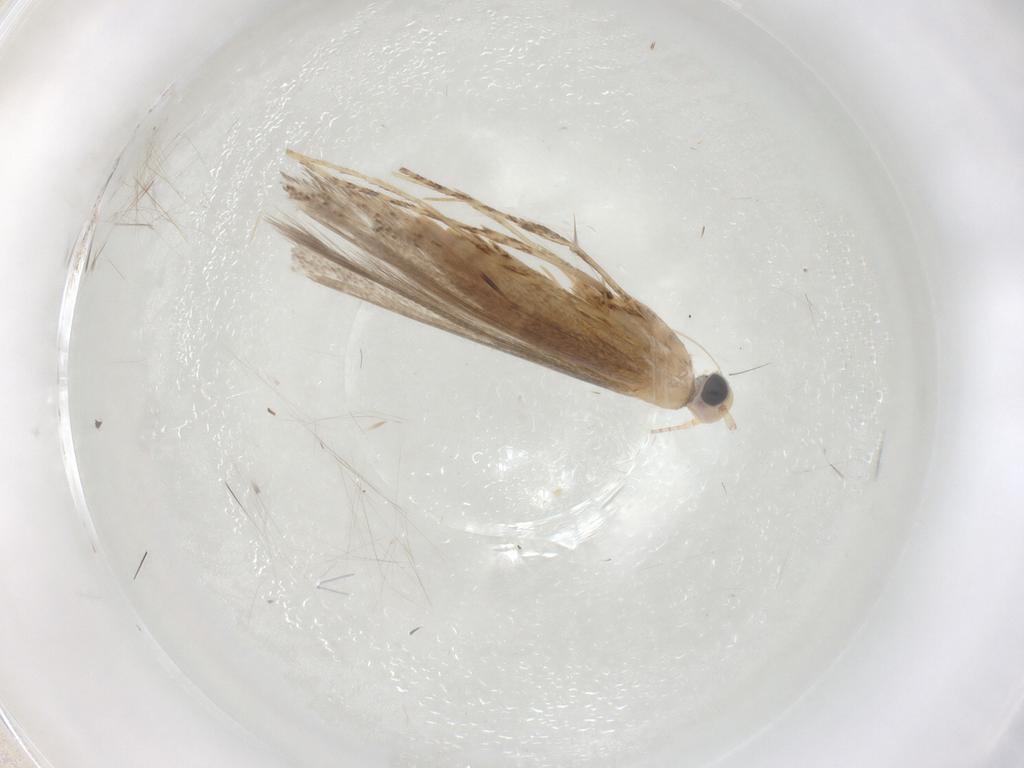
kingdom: Animalia
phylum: Arthropoda
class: Insecta
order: Lepidoptera
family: Gracillariidae
